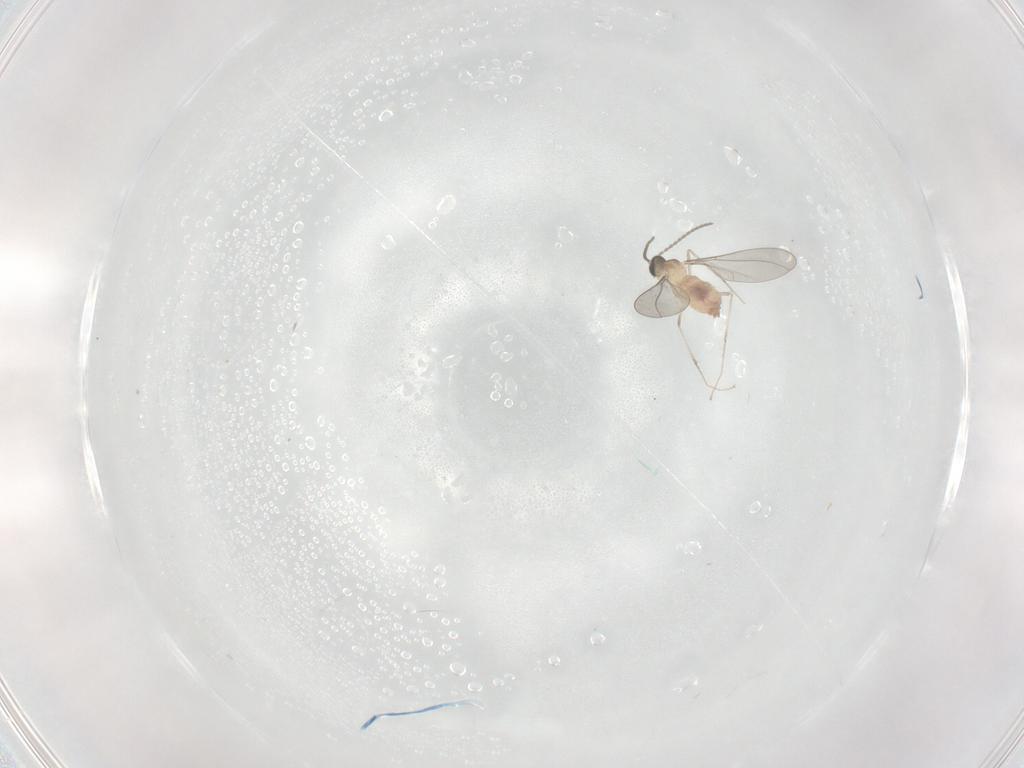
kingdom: Animalia
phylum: Arthropoda
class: Insecta
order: Diptera
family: Cecidomyiidae
